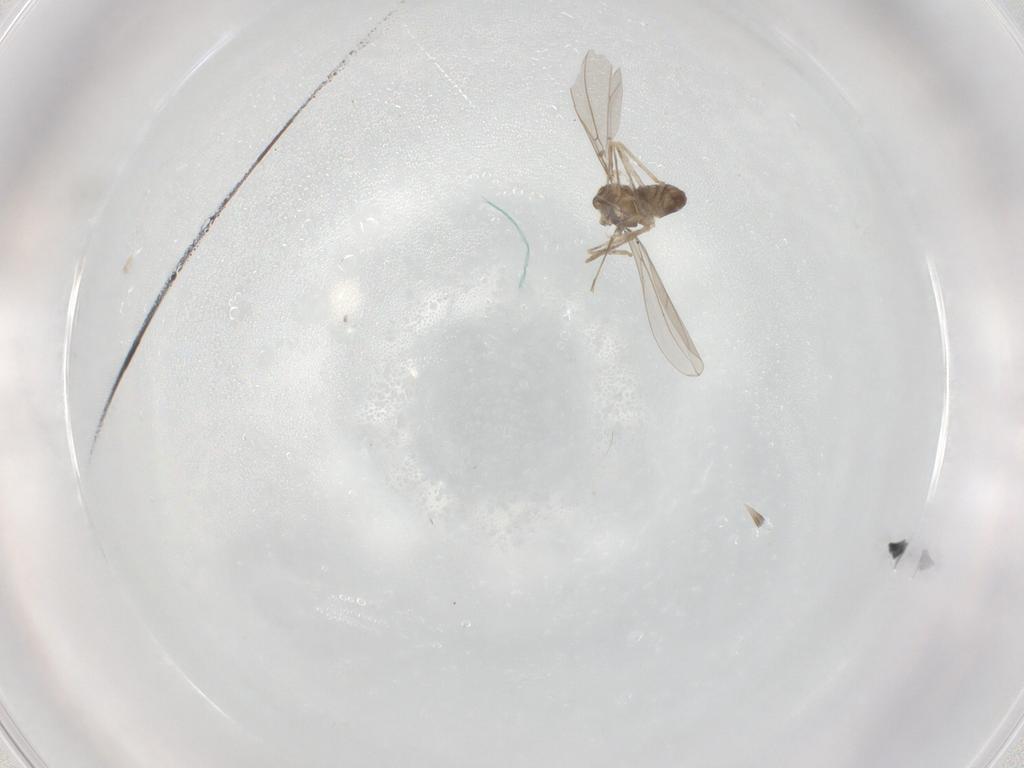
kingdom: Animalia
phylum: Arthropoda
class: Insecta
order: Diptera
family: Cecidomyiidae
